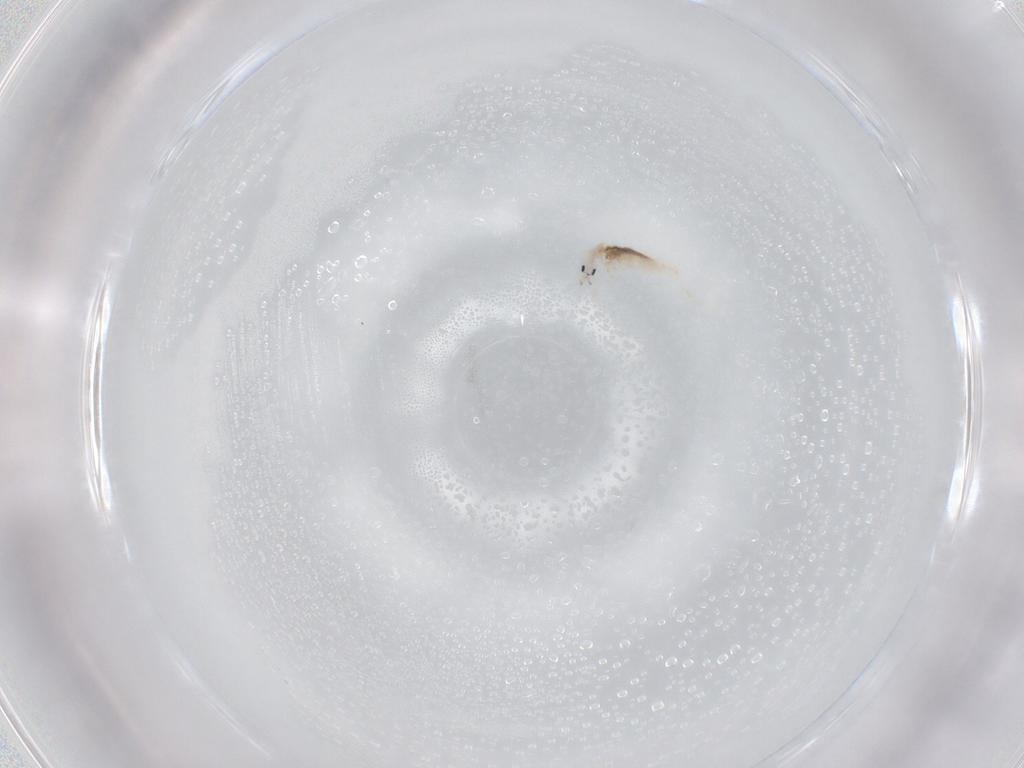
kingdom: Animalia
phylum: Arthropoda
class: Collembola
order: Entomobryomorpha
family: Entomobryidae
